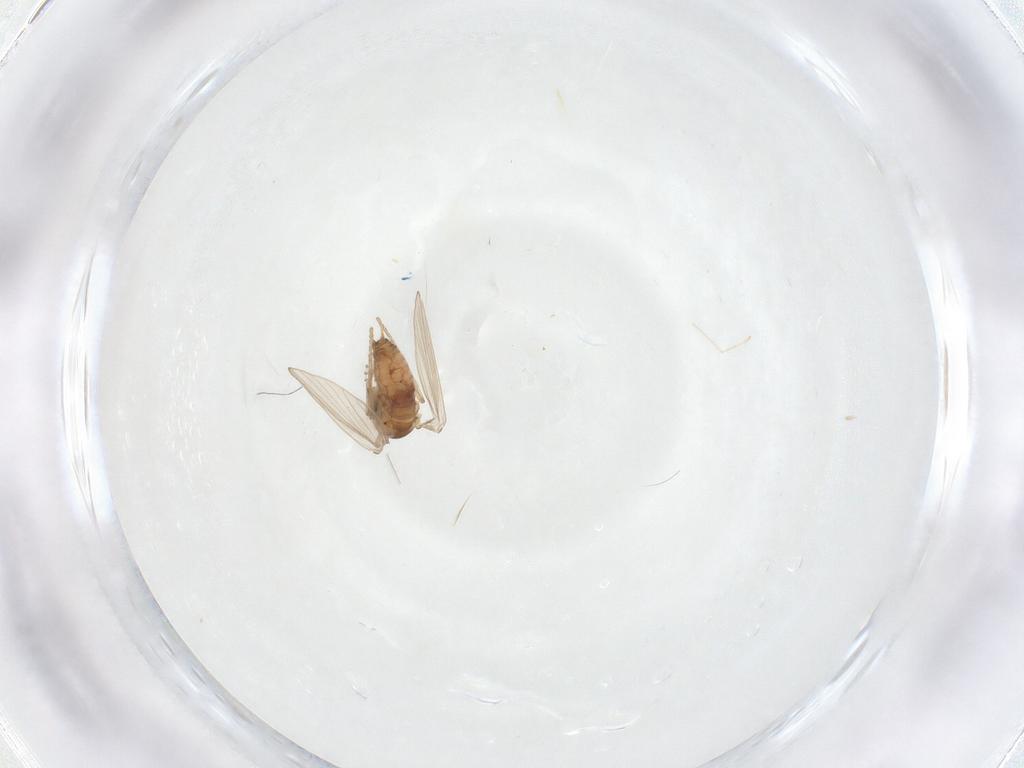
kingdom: Animalia
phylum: Arthropoda
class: Insecta
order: Diptera
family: Psychodidae
